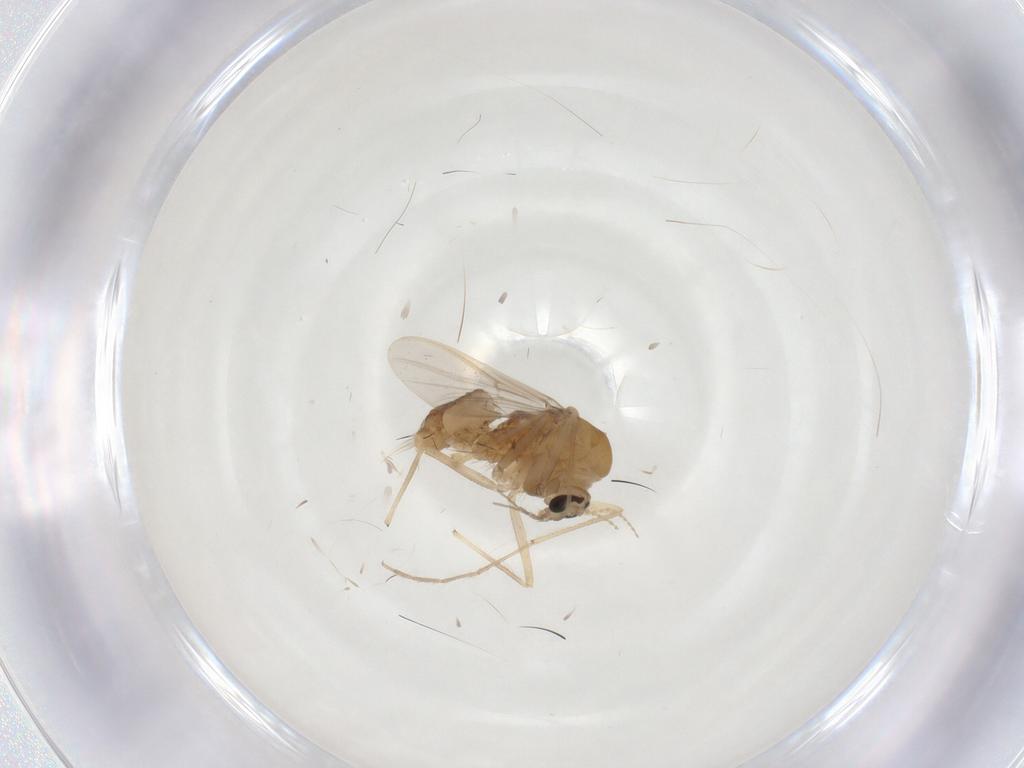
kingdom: Animalia
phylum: Arthropoda
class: Insecta
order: Diptera
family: Chironomidae
